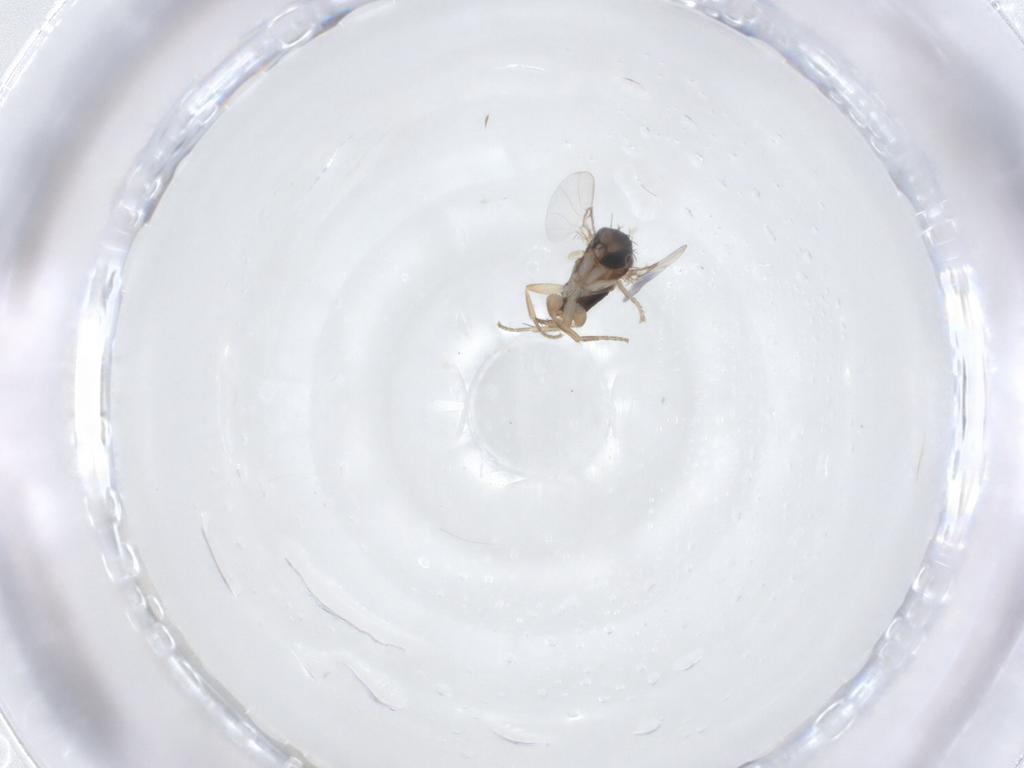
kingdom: Animalia
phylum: Arthropoda
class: Insecta
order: Diptera
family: Phoridae
